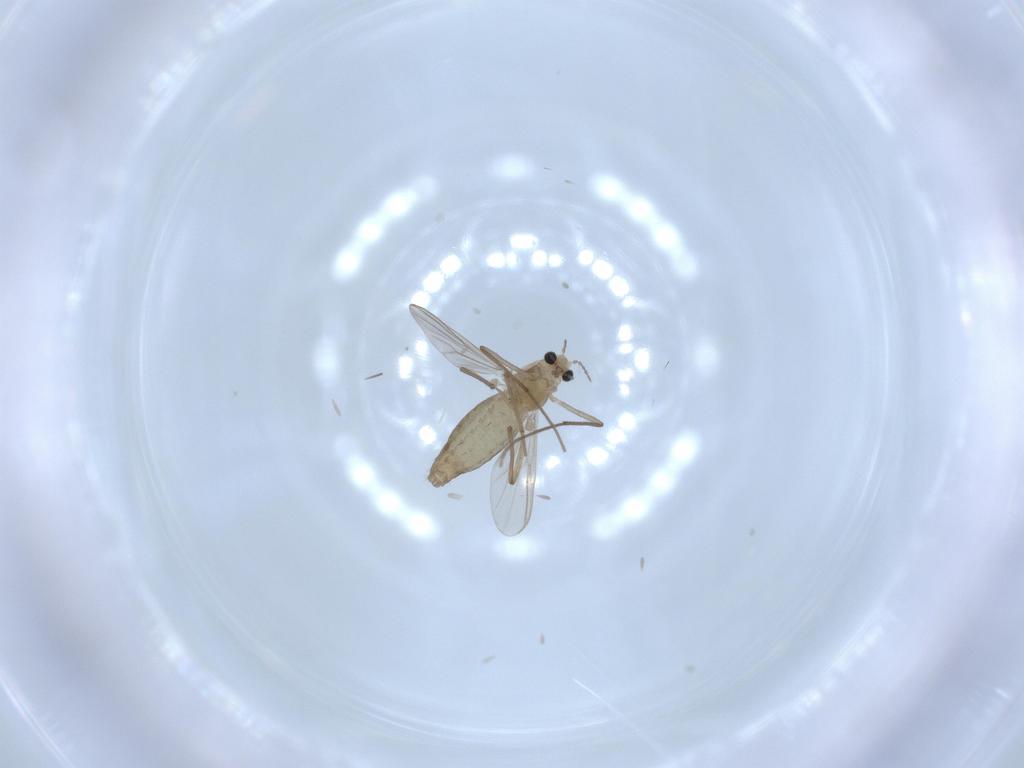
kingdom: Animalia
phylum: Arthropoda
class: Insecta
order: Diptera
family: Chironomidae
